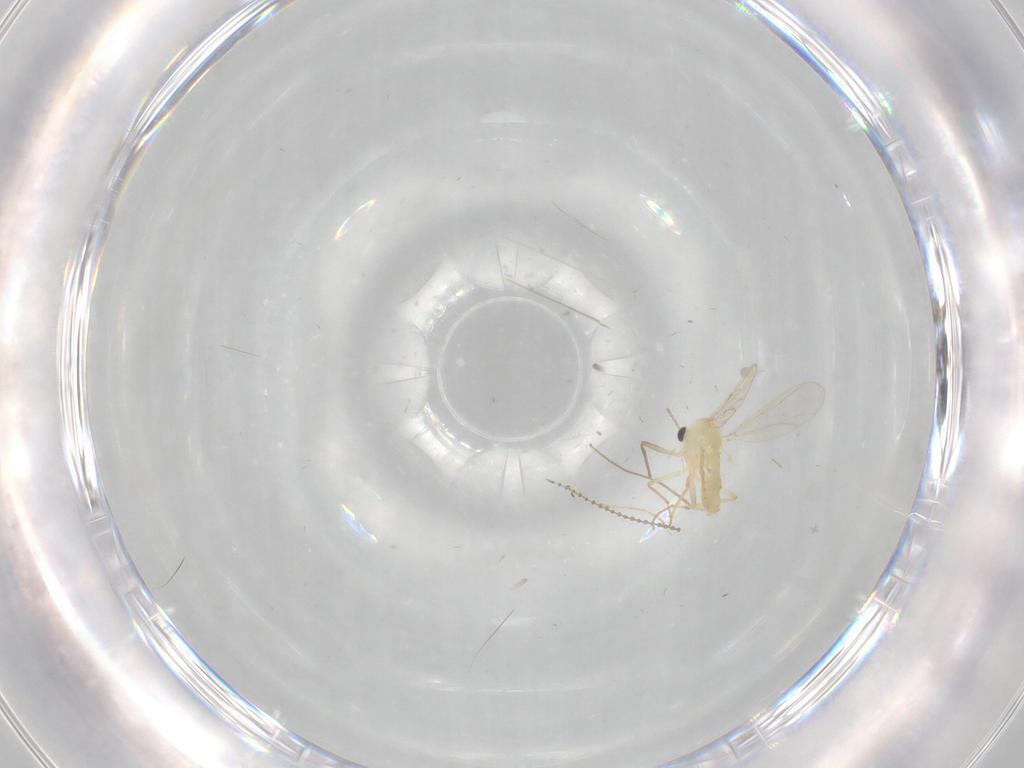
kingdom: Animalia
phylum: Arthropoda
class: Insecta
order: Diptera
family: Chironomidae
